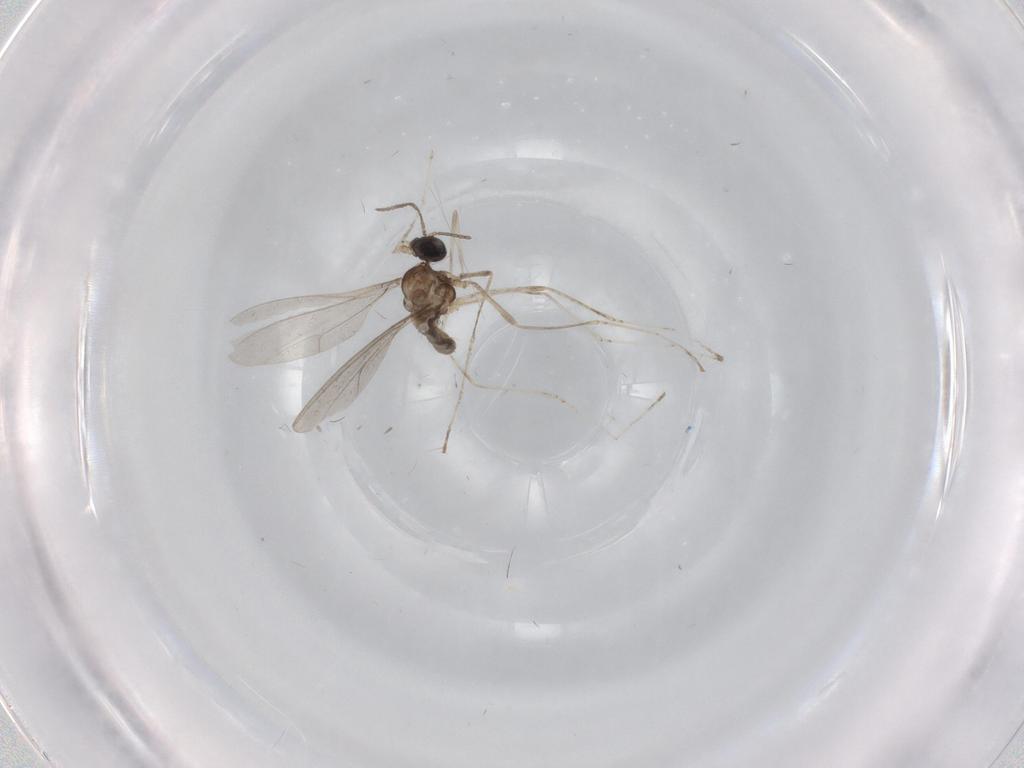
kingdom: Animalia
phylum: Arthropoda
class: Insecta
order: Diptera
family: Cecidomyiidae
